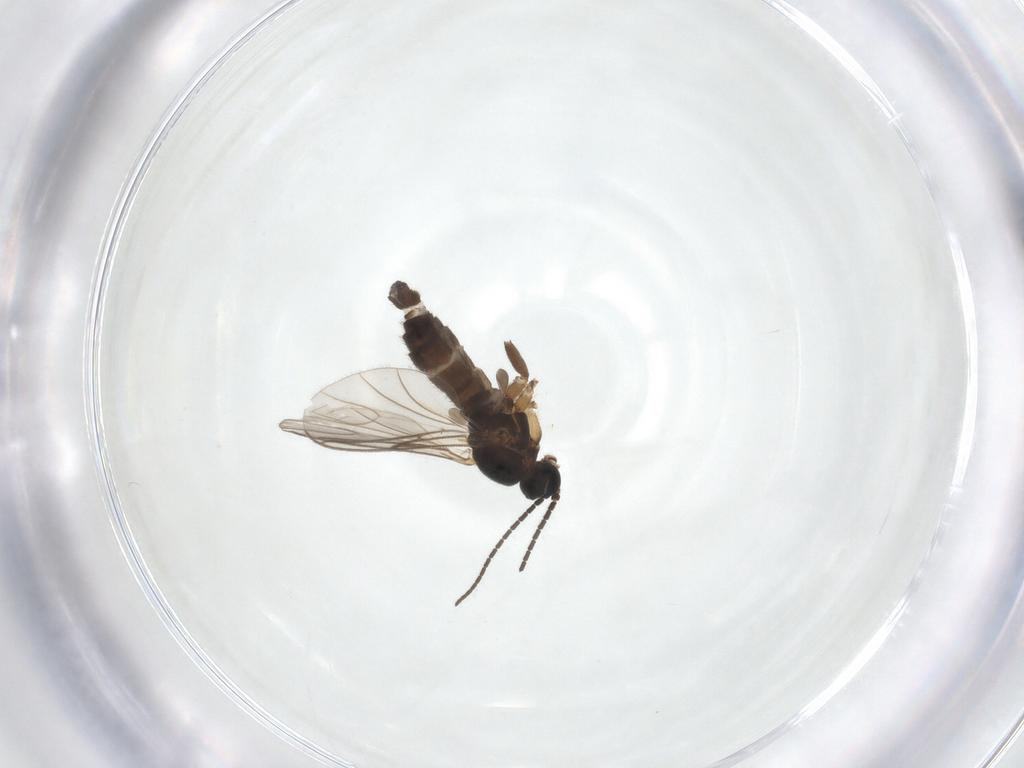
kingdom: Animalia
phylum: Arthropoda
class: Insecta
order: Diptera
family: Sciaridae
